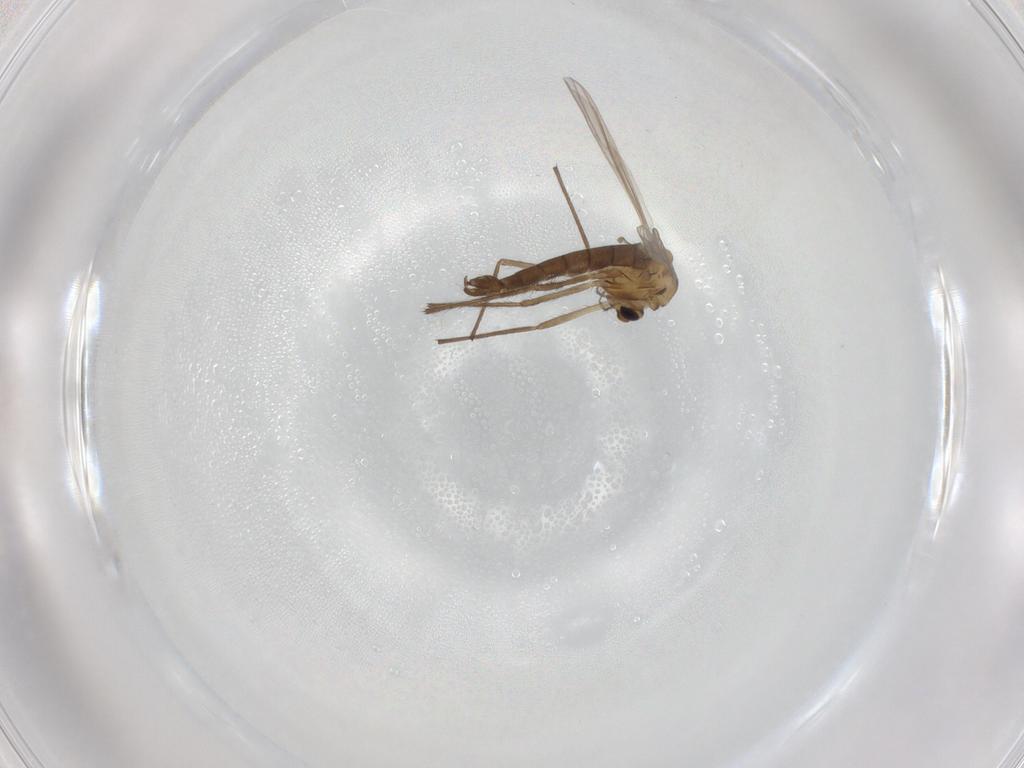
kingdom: Animalia
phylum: Arthropoda
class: Insecta
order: Diptera
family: Chironomidae
